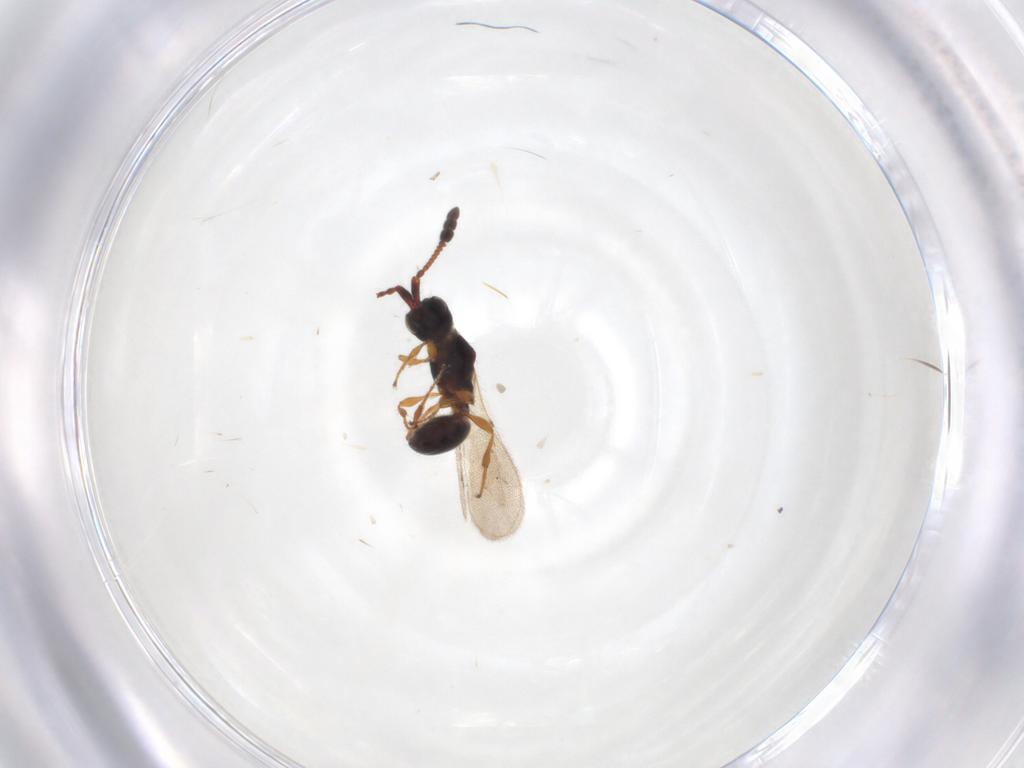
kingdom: Animalia
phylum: Arthropoda
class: Insecta
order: Hymenoptera
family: Diapriidae
